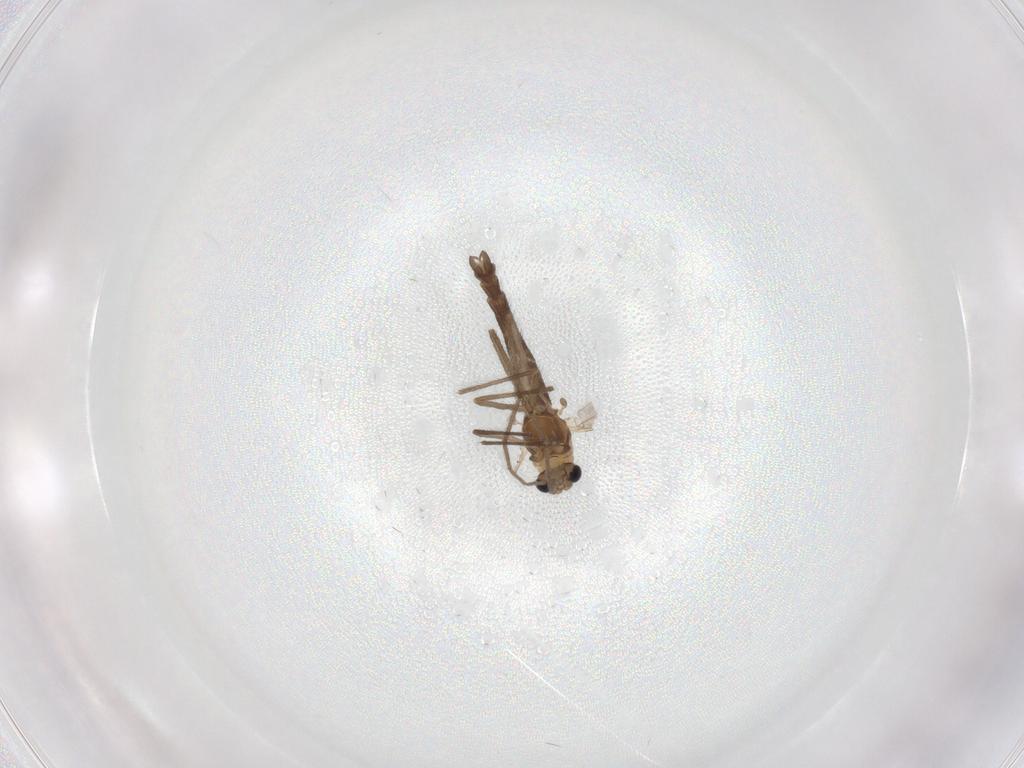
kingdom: Animalia
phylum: Arthropoda
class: Insecta
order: Diptera
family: Chironomidae
